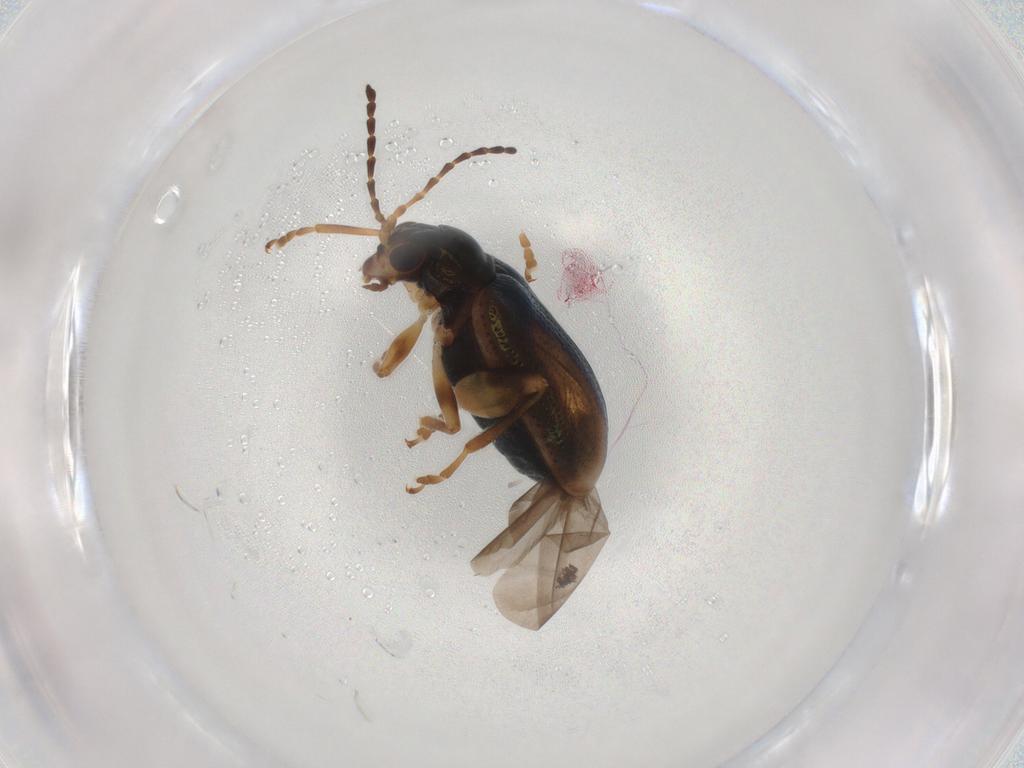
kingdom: Animalia
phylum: Arthropoda
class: Insecta
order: Coleoptera
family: Chrysomelidae
